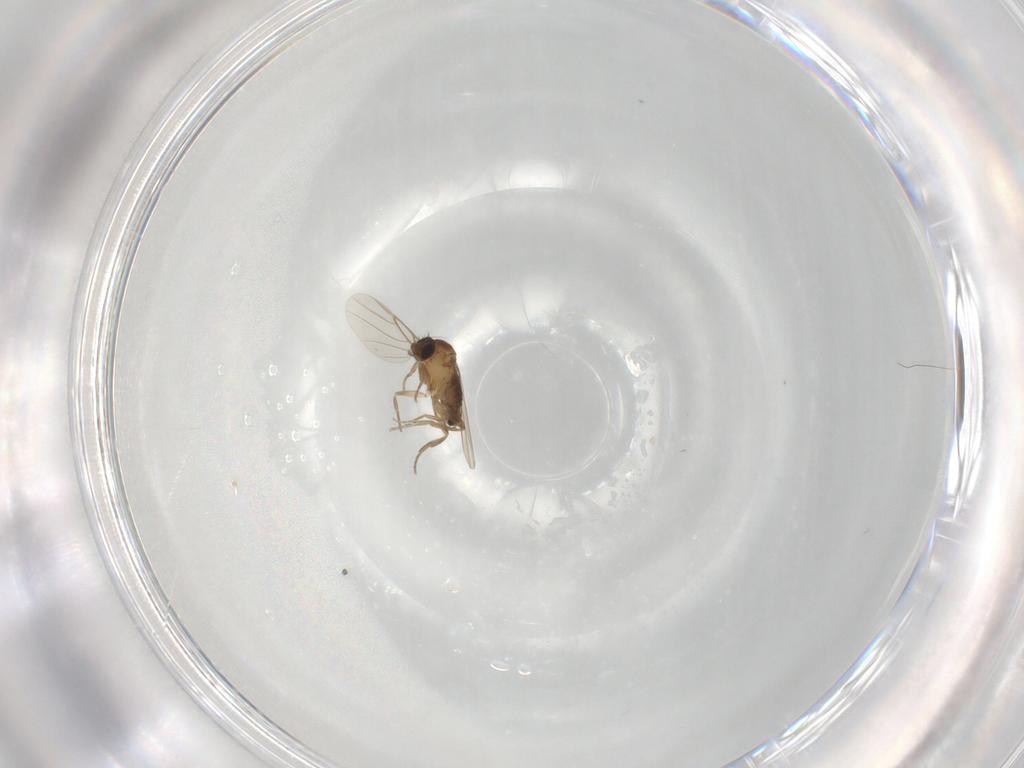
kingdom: Animalia
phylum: Arthropoda
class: Insecta
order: Diptera
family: Phoridae
